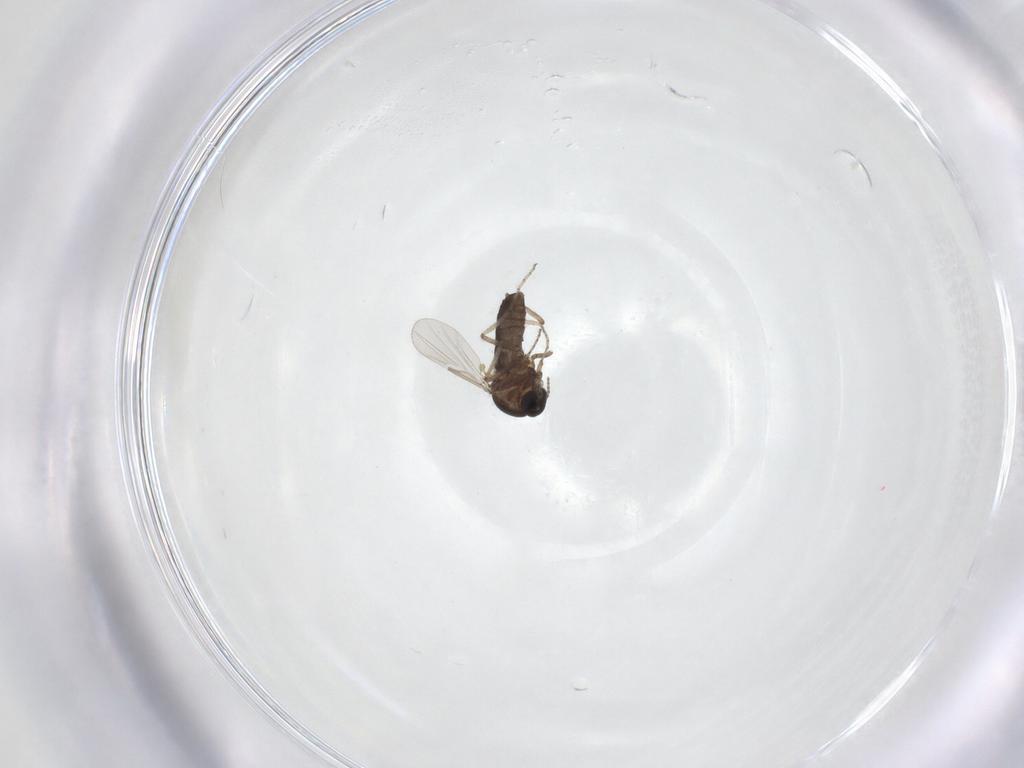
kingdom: Animalia
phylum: Arthropoda
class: Insecta
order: Diptera
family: Ceratopogonidae
